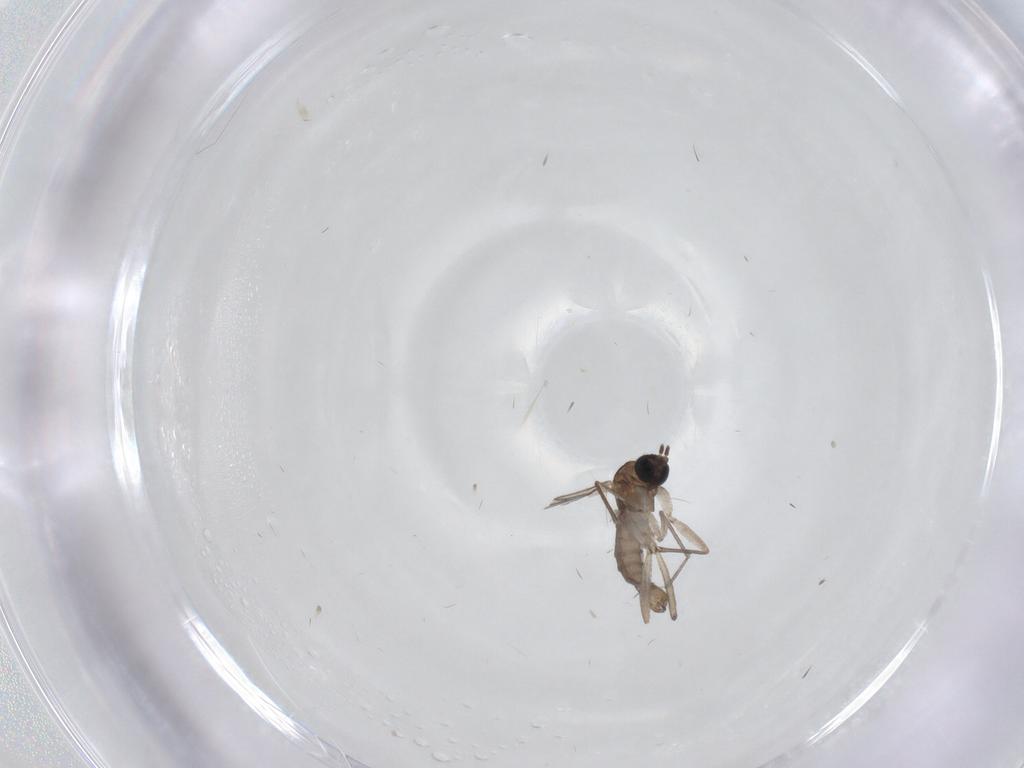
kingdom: Animalia
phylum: Arthropoda
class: Insecta
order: Diptera
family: Ceratopogonidae
